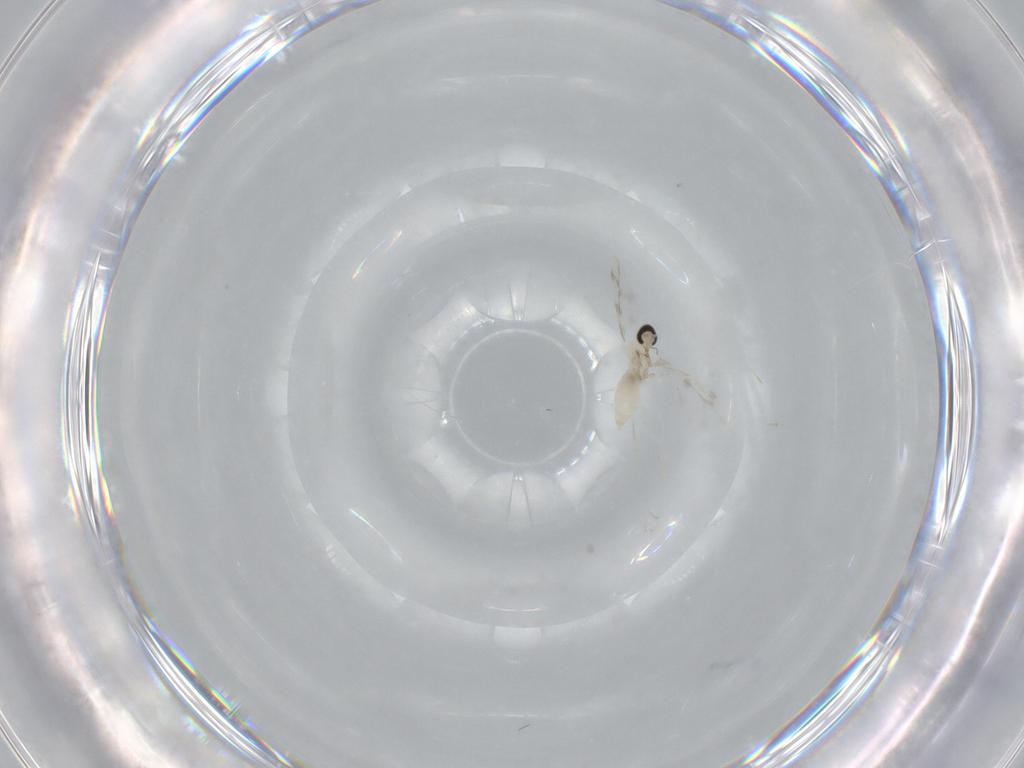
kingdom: Animalia
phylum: Arthropoda
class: Insecta
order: Diptera
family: Cecidomyiidae
